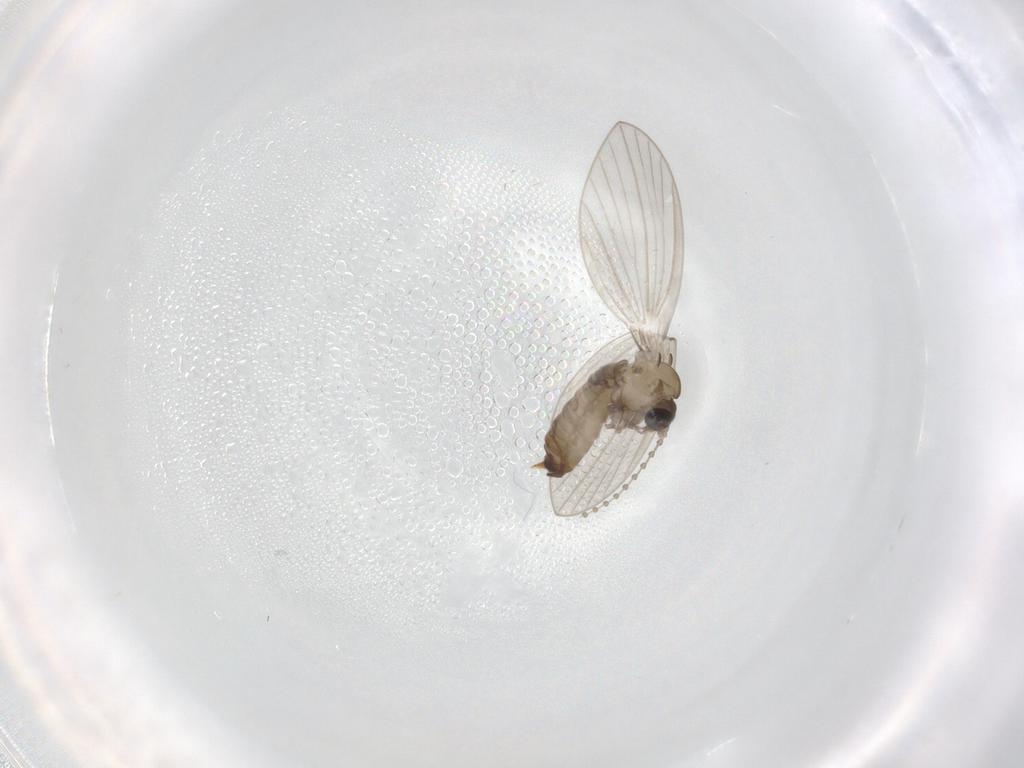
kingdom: Animalia
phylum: Arthropoda
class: Insecta
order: Diptera
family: Psychodidae
